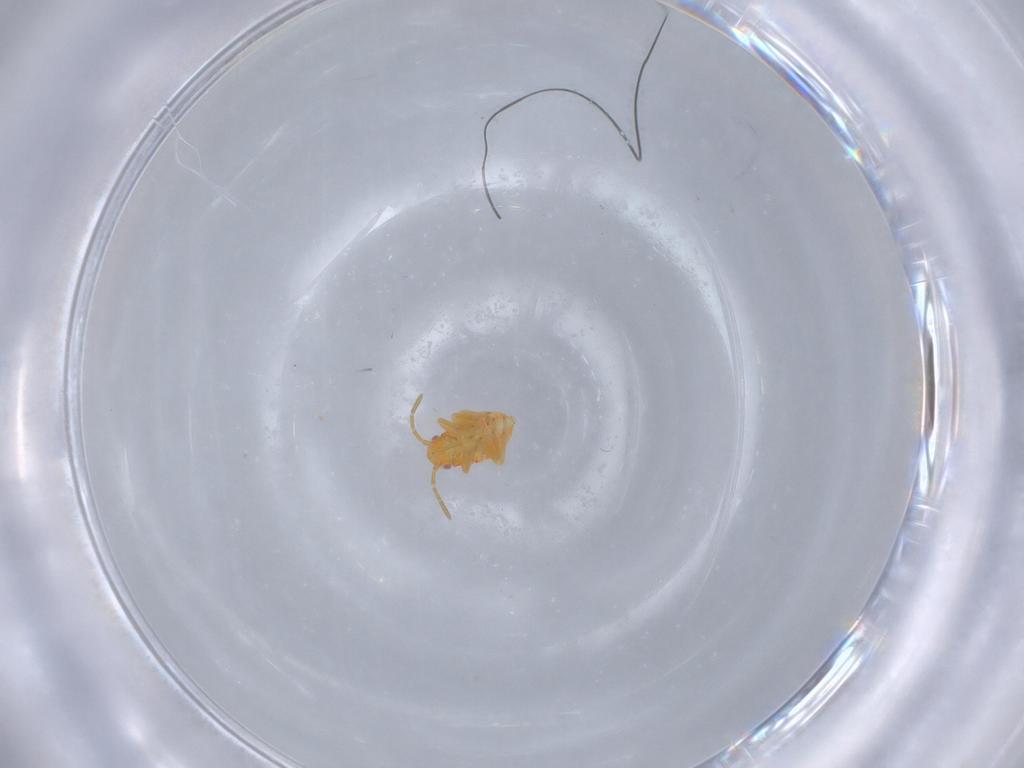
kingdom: Animalia
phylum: Arthropoda
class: Insecta
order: Hemiptera
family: Miridae
